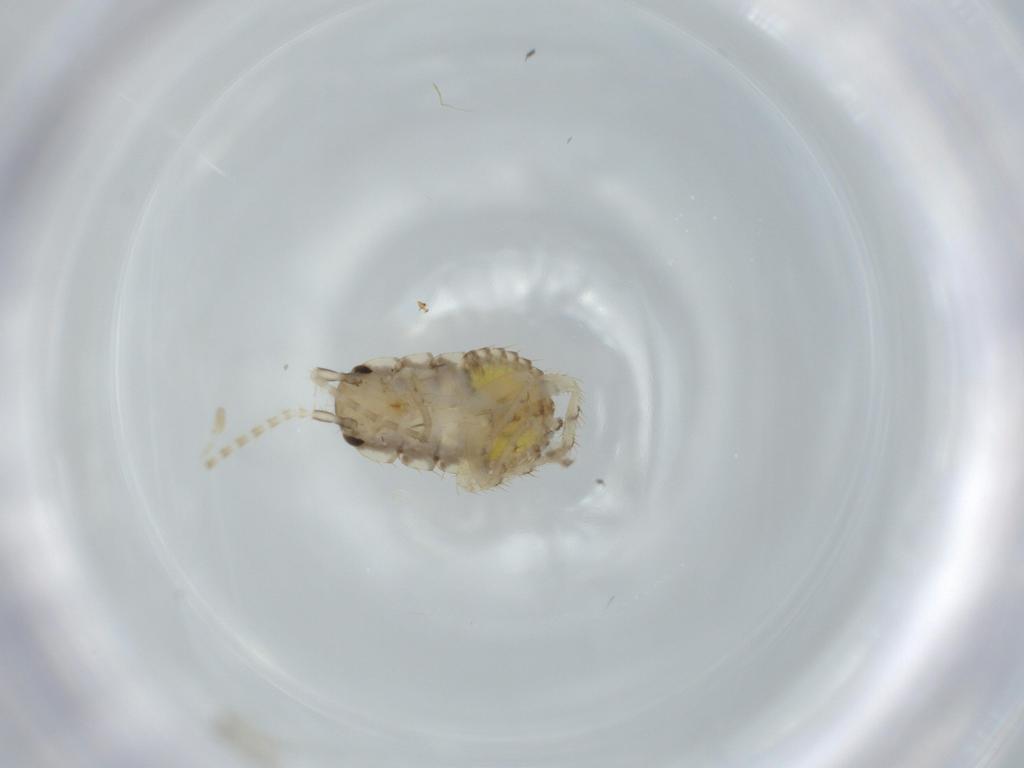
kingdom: Animalia
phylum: Arthropoda
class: Insecta
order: Blattodea
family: Ectobiidae
